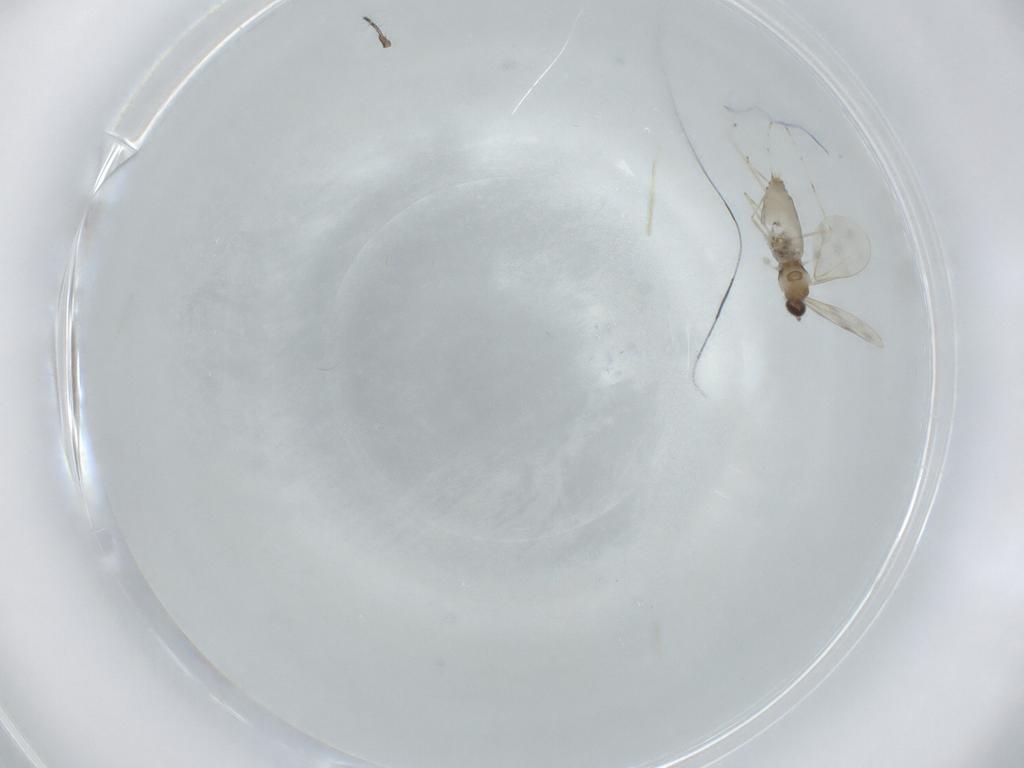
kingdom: Animalia
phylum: Arthropoda
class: Insecta
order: Diptera
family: Cecidomyiidae
